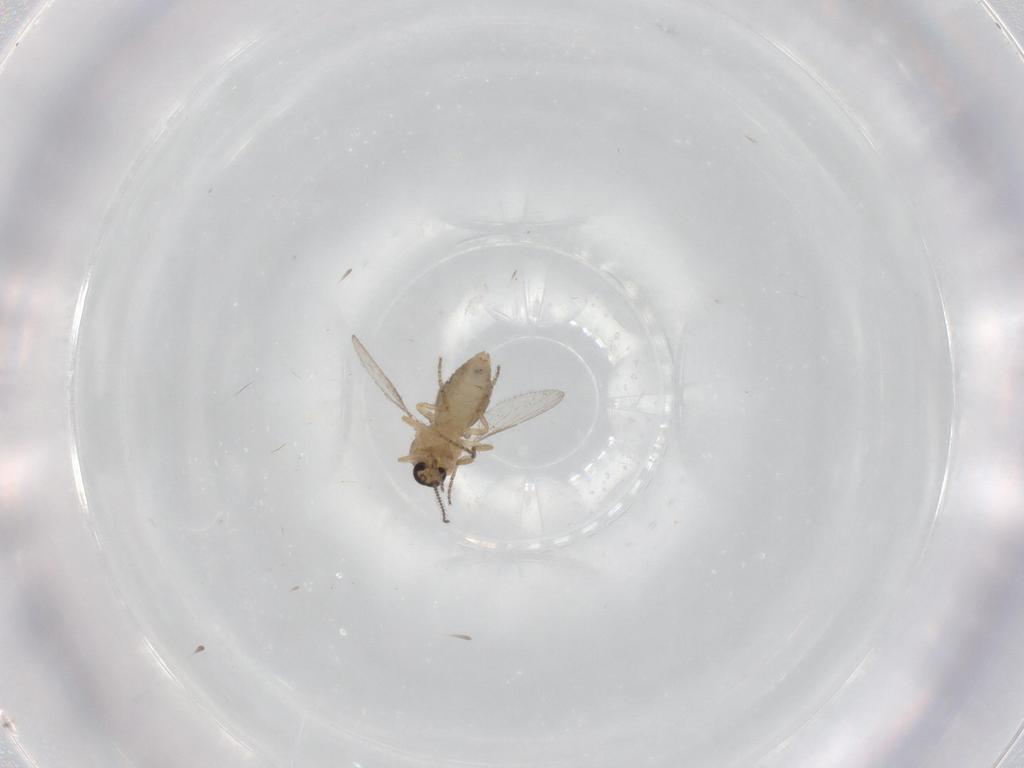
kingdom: Animalia
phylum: Arthropoda
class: Insecta
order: Diptera
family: Ceratopogonidae
